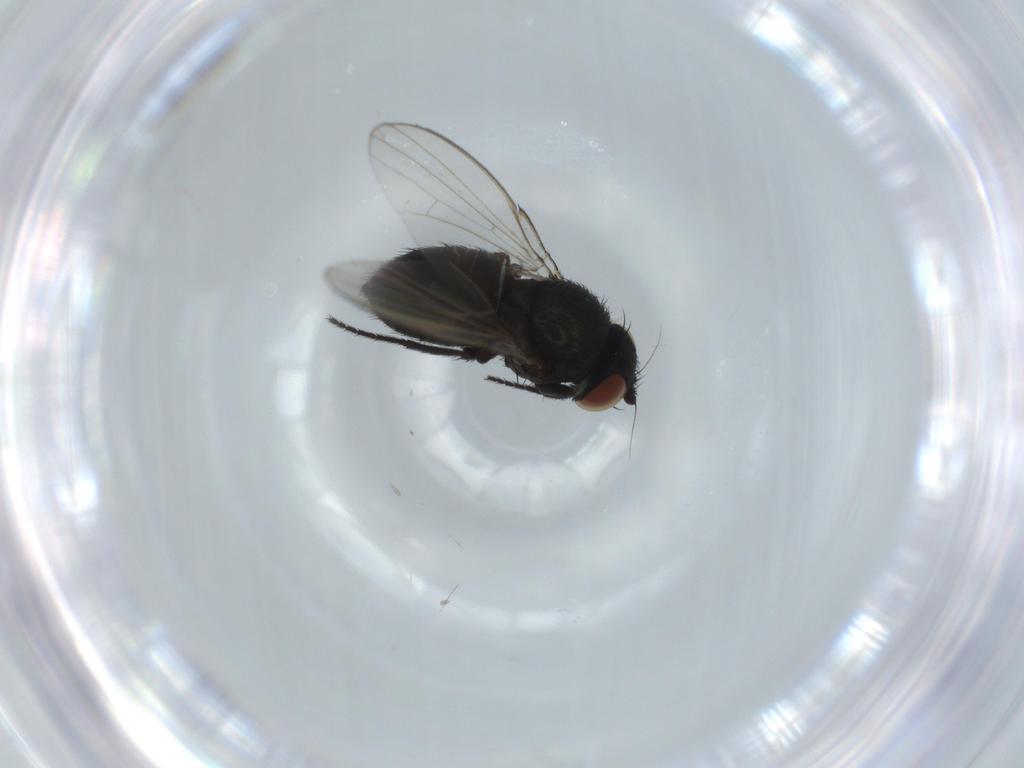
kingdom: Animalia
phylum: Arthropoda
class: Insecta
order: Diptera
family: Milichiidae
